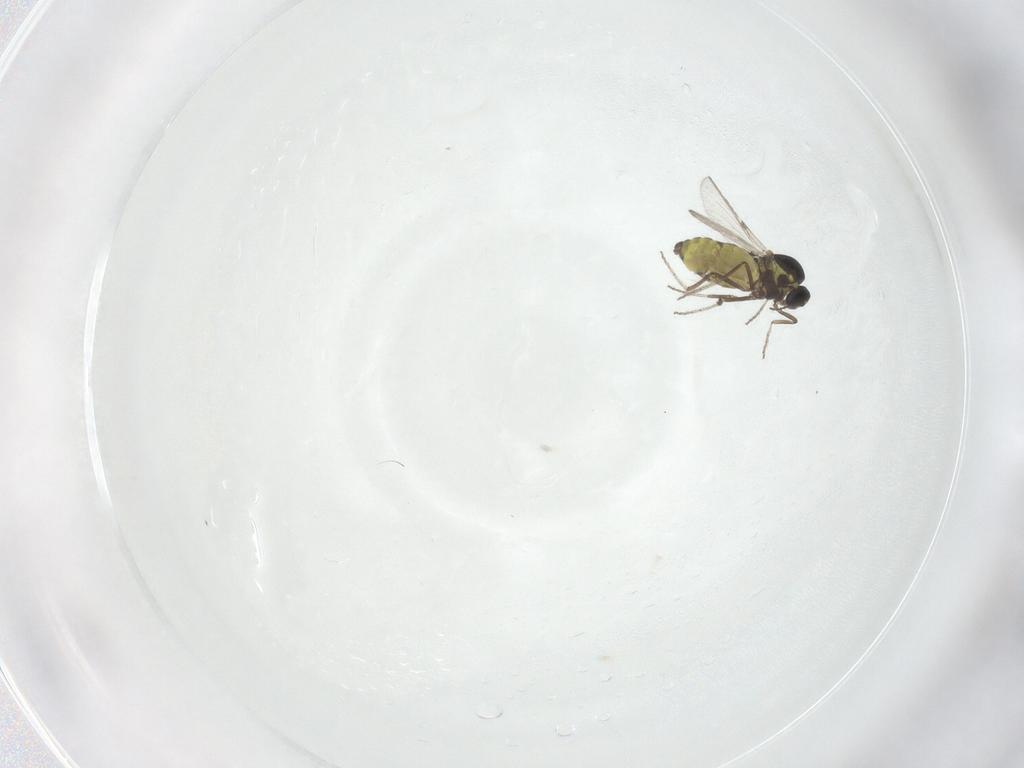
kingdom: Animalia
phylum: Arthropoda
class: Insecta
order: Diptera
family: Ceratopogonidae
